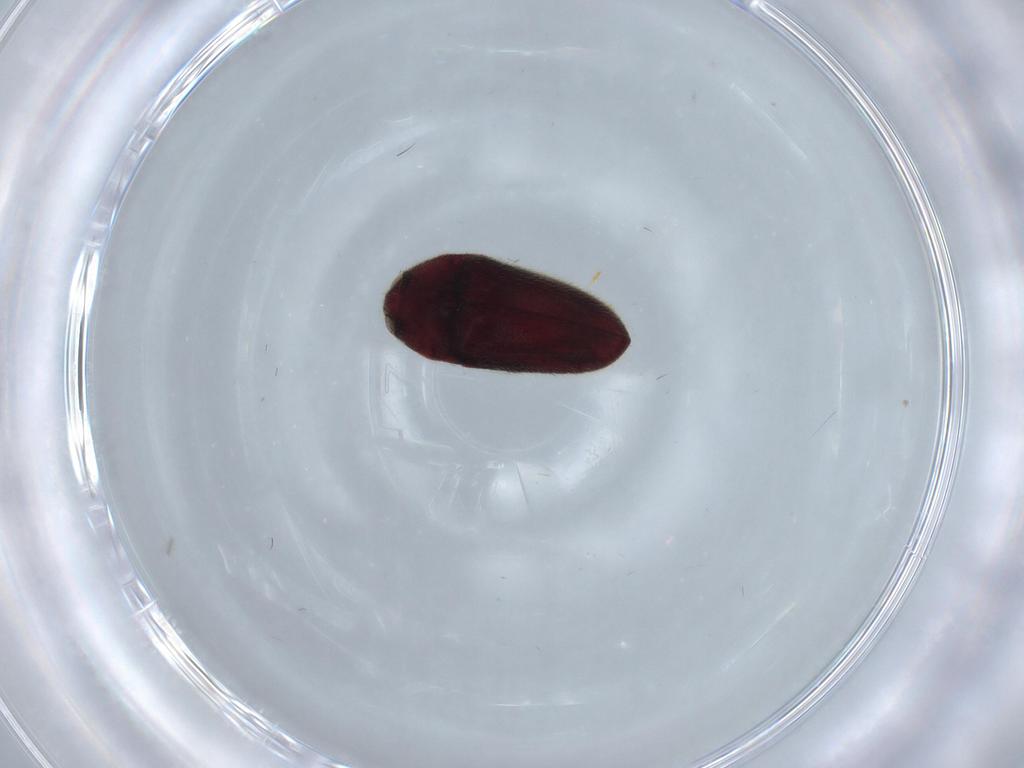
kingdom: Animalia
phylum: Arthropoda
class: Insecta
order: Coleoptera
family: Throscidae
